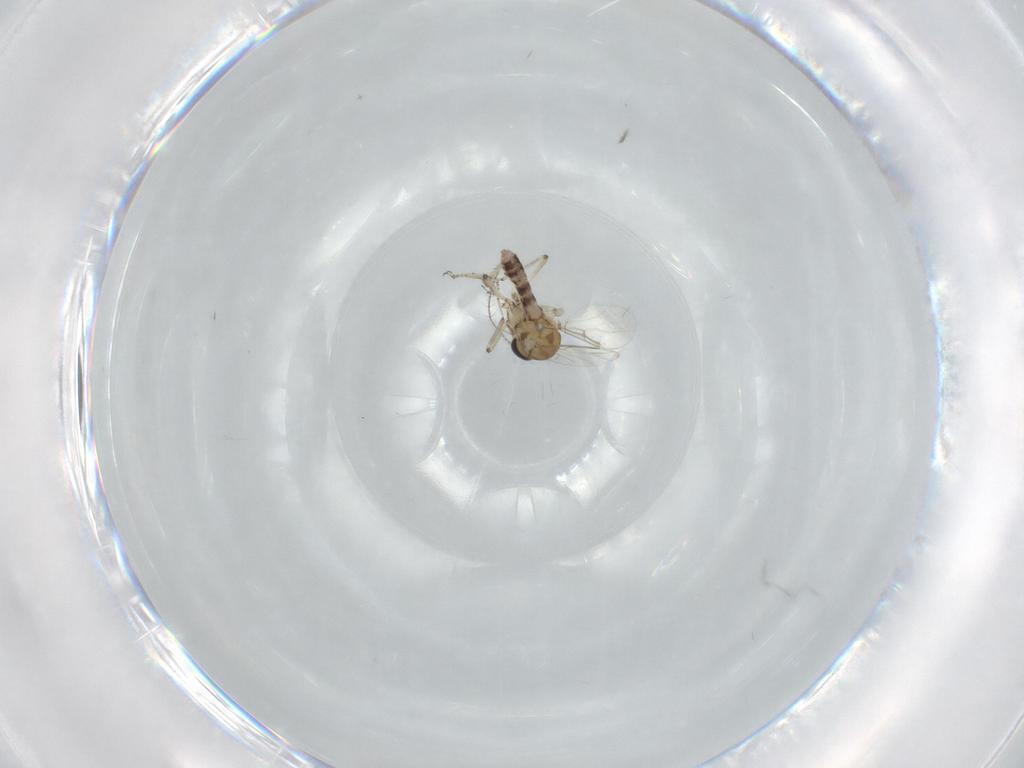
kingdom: Animalia
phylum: Arthropoda
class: Insecta
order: Diptera
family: Ceratopogonidae
